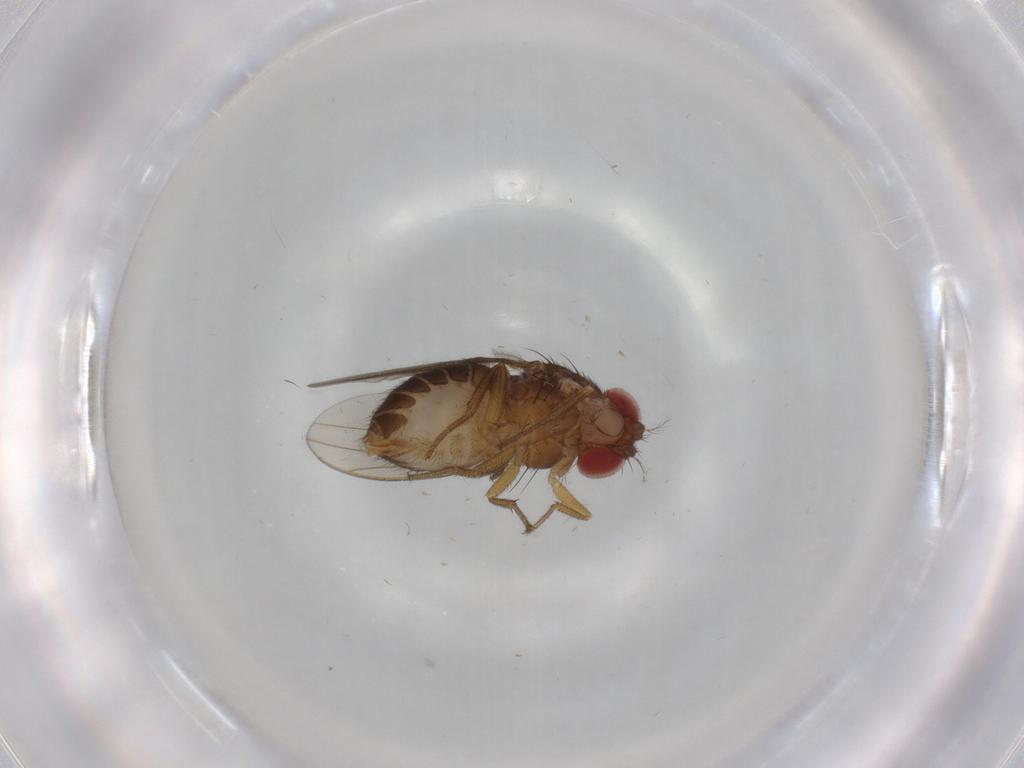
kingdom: Animalia
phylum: Arthropoda
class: Insecta
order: Diptera
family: Drosophilidae
